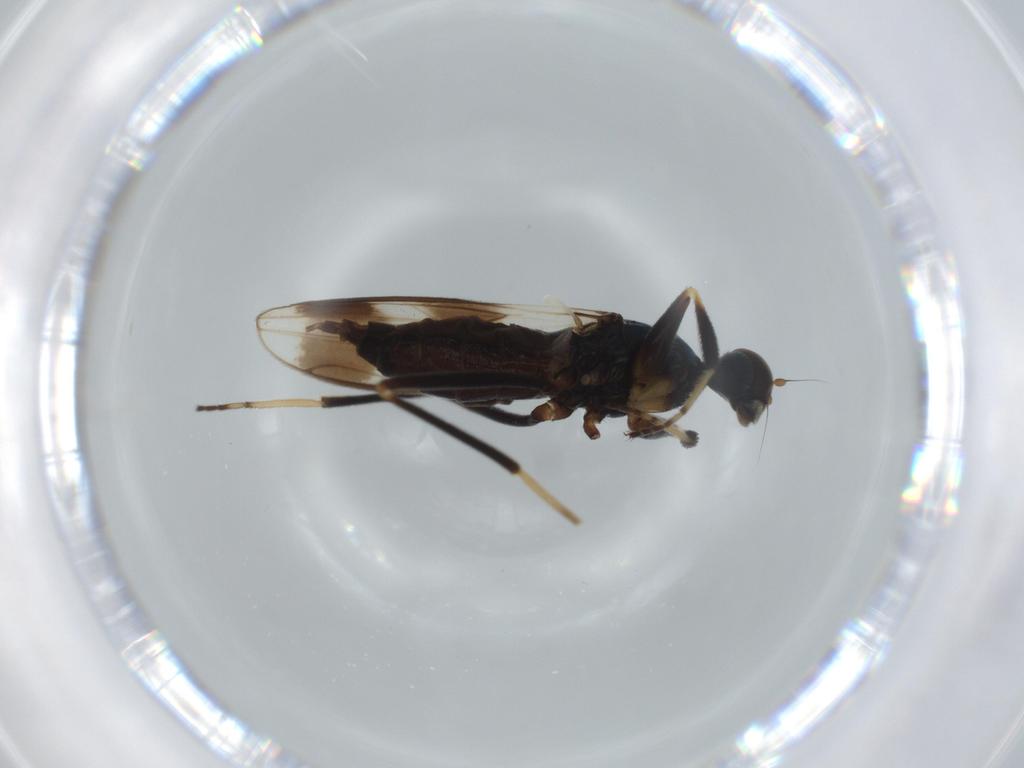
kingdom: Animalia
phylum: Arthropoda
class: Insecta
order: Diptera
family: Hybotidae
